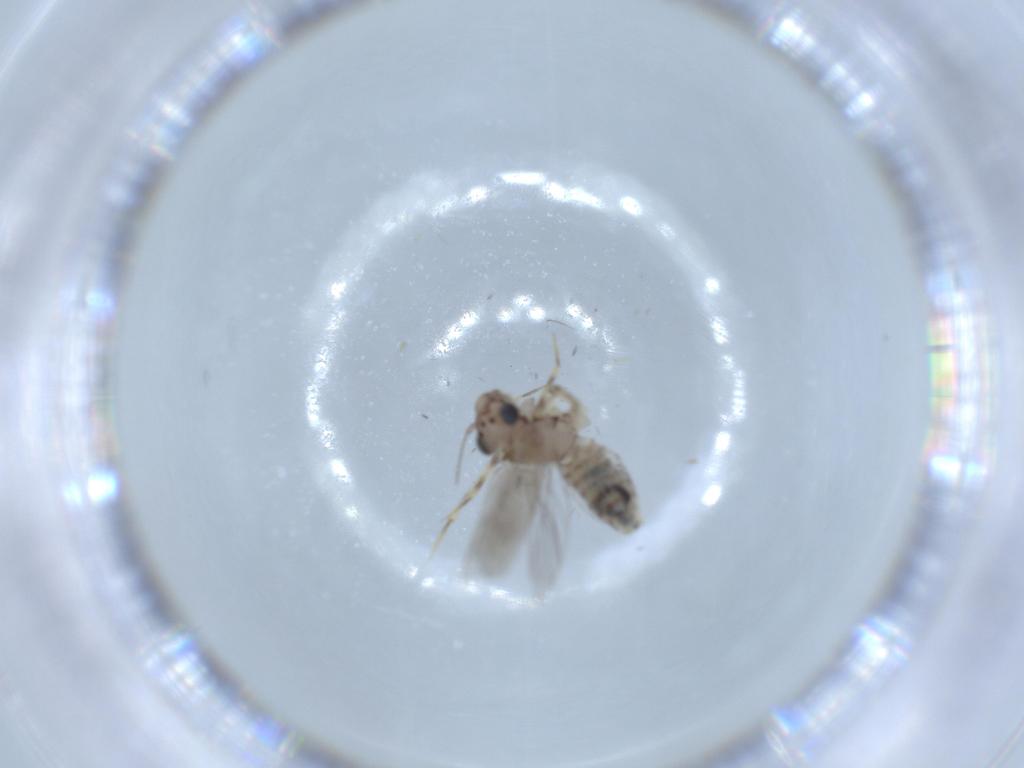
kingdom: Animalia
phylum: Arthropoda
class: Insecta
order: Psocodea
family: Lepidopsocidae
